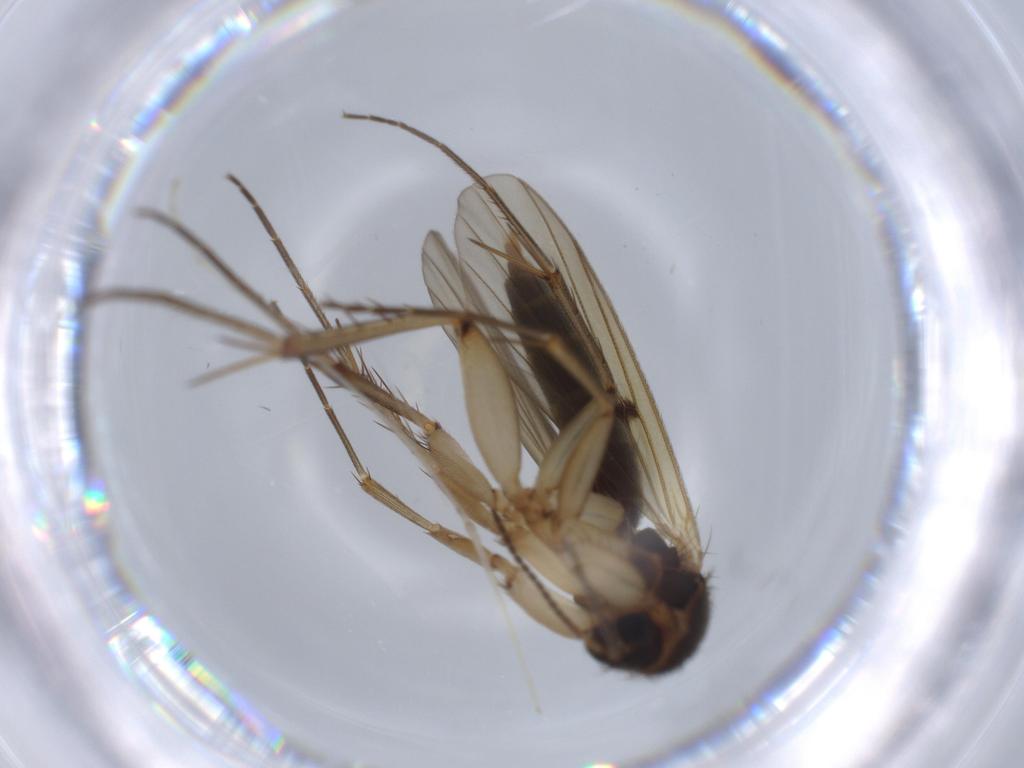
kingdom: Animalia
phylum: Arthropoda
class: Insecta
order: Diptera
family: Muscidae
